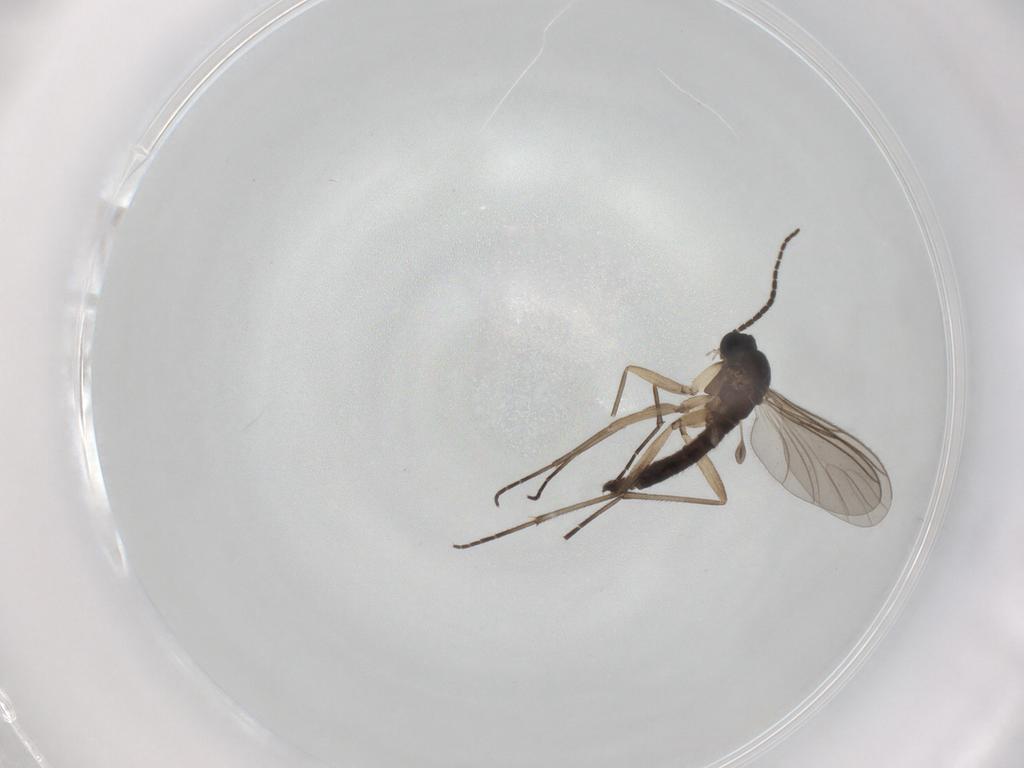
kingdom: Animalia
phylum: Arthropoda
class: Insecta
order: Diptera
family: Sciaridae
